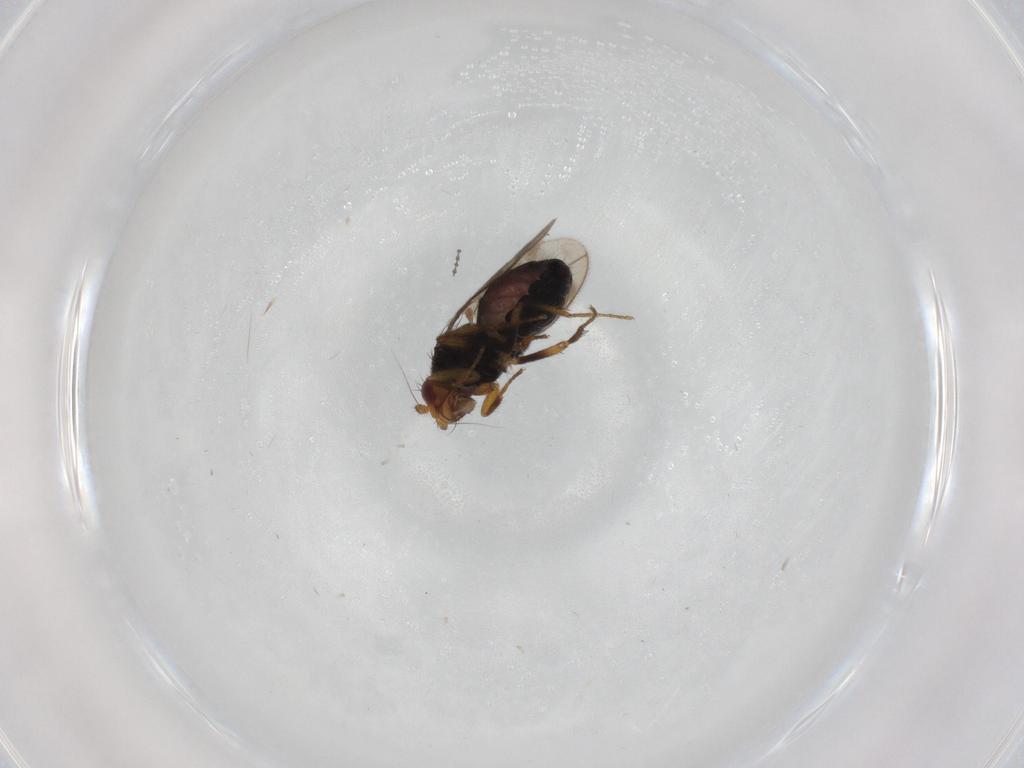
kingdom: Animalia
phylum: Arthropoda
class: Insecta
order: Diptera
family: Sphaeroceridae
